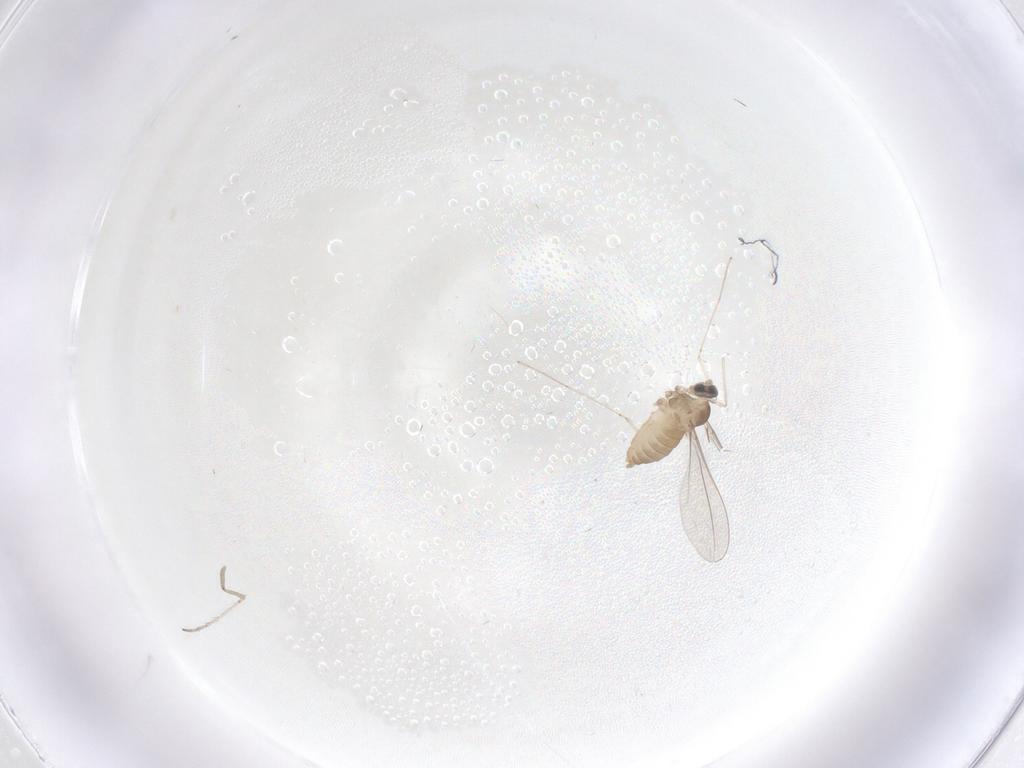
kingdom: Animalia
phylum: Arthropoda
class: Insecta
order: Diptera
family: Cecidomyiidae
